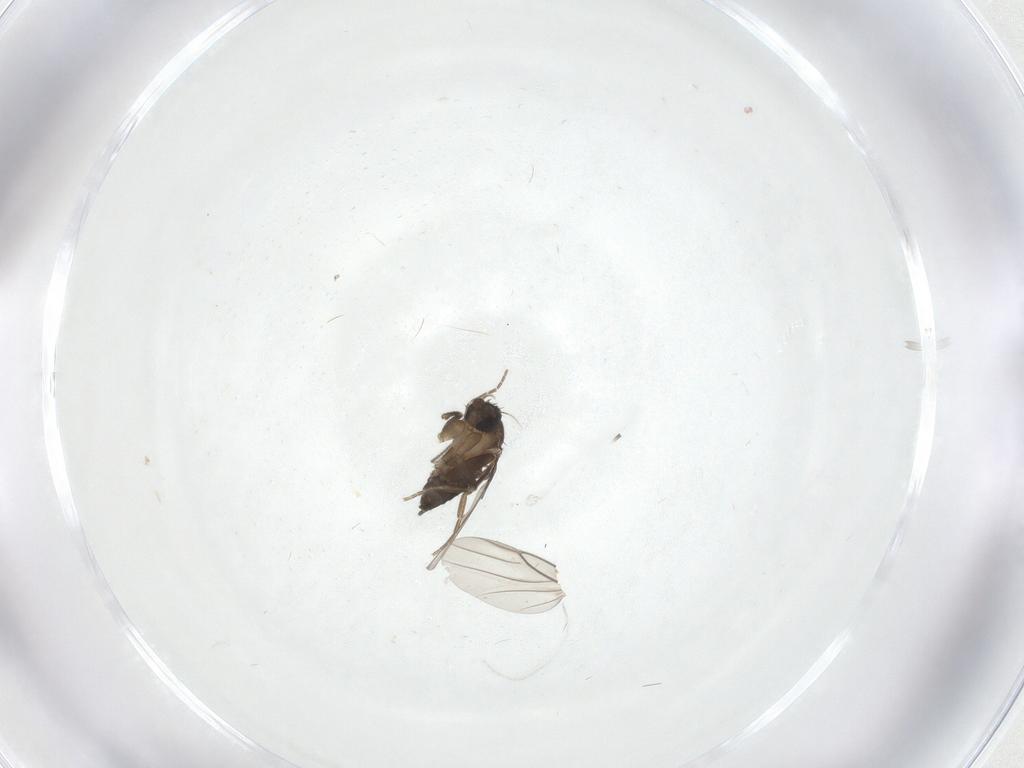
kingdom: Animalia
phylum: Arthropoda
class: Insecta
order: Diptera
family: Phoridae
